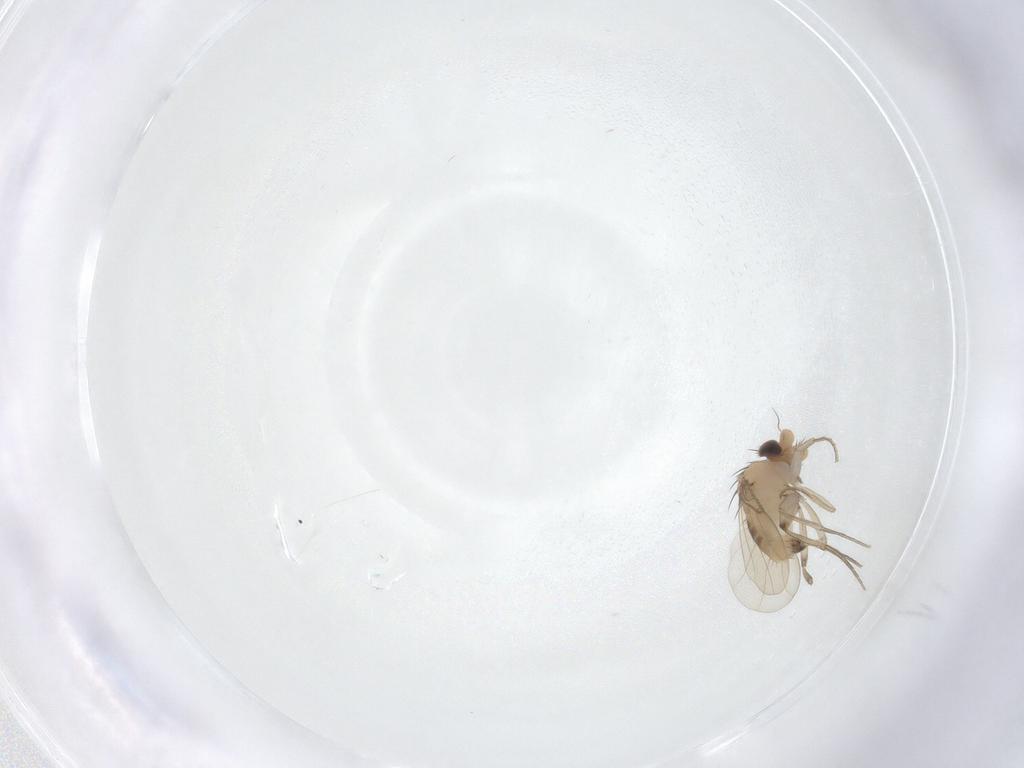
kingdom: Animalia
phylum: Arthropoda
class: Insecta
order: Diptera
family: Phoridae
